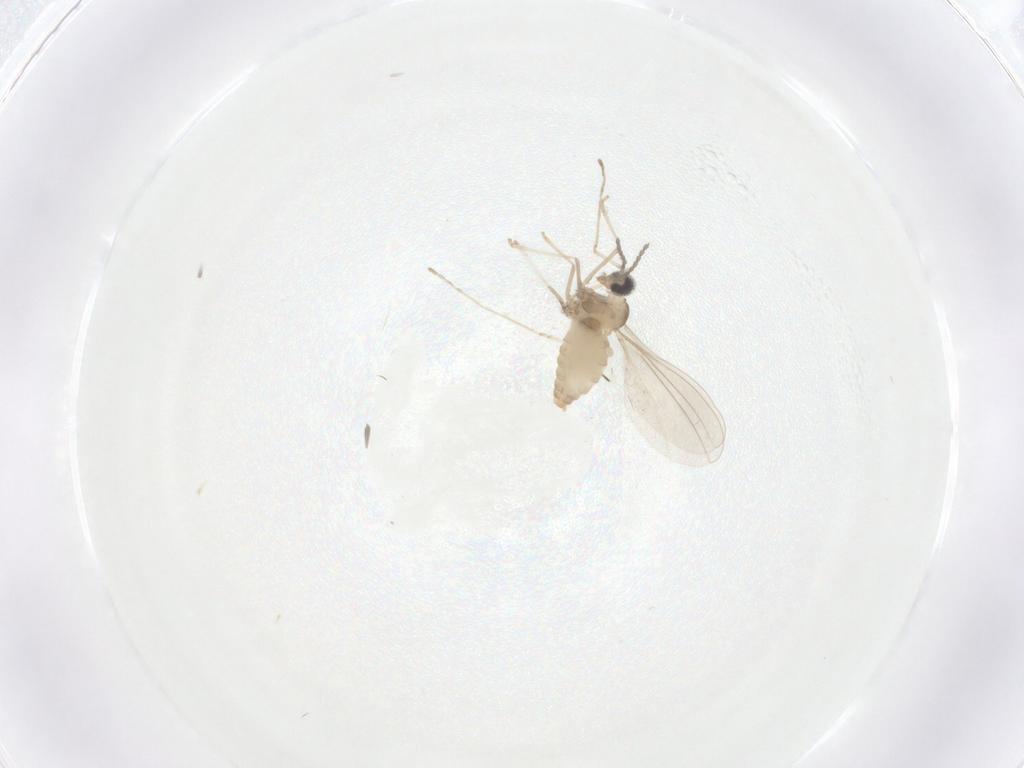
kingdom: Animalia
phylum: Arthropoda
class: Insecta
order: Diptera
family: Cecidomyiidae
